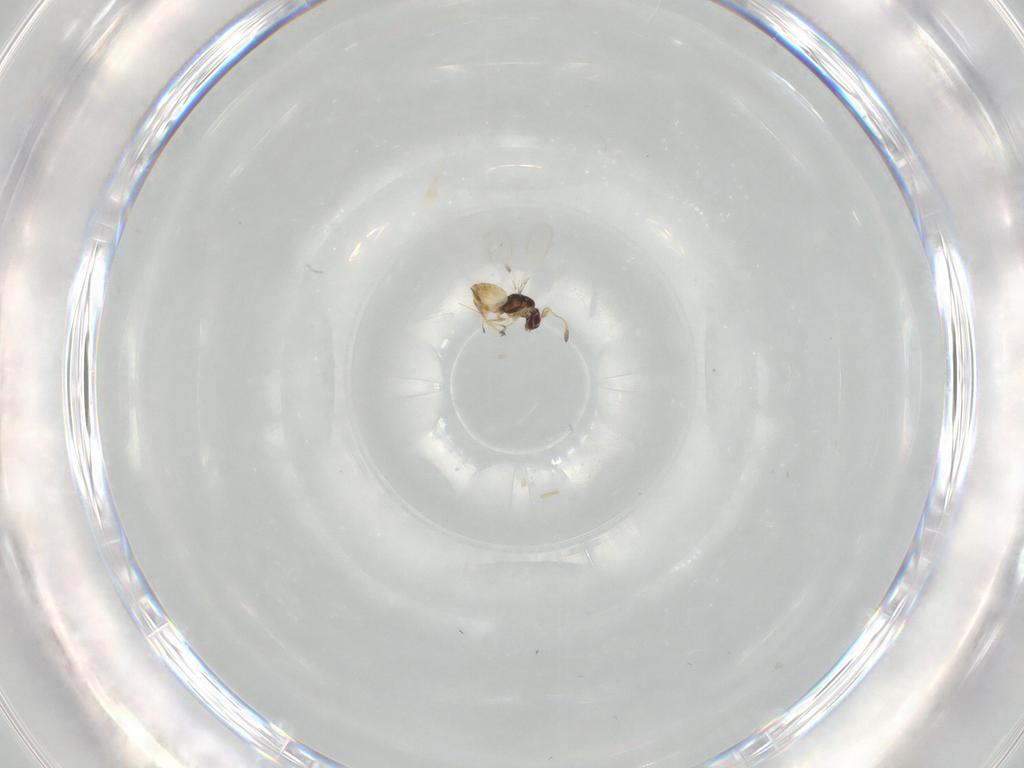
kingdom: Animalia
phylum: Arthropoda
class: Insecta
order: Hymenoptera
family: Mymaridae
